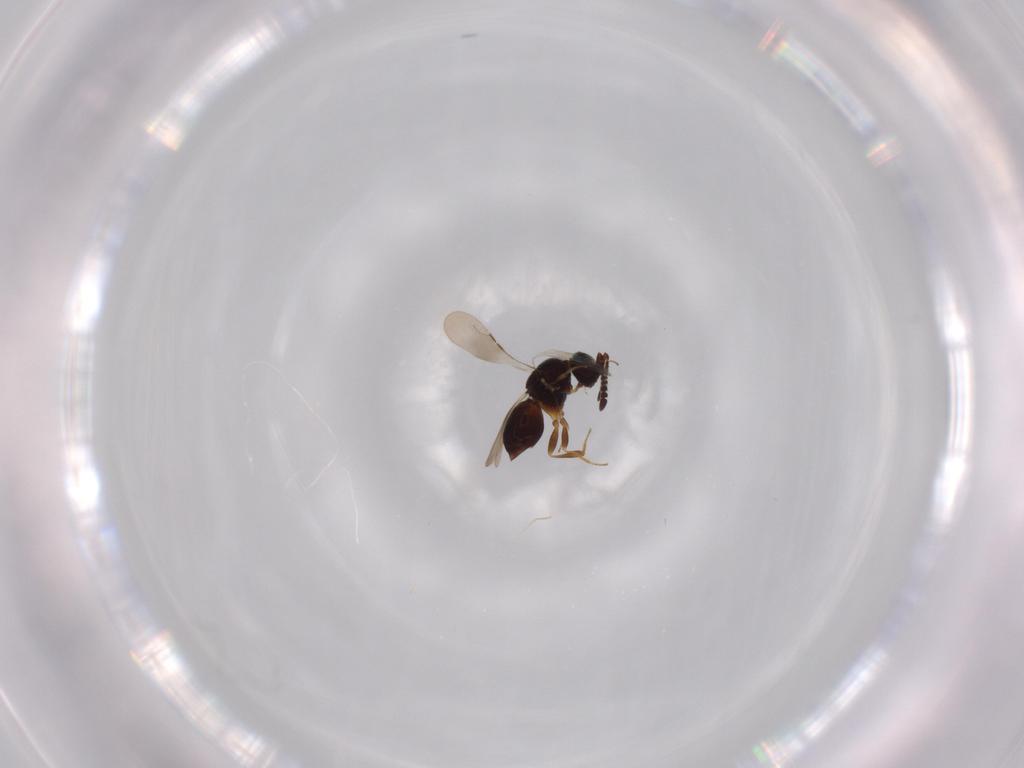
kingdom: Animalia
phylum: Arthropoda
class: Insecta
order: Hymenoptera
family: Ceraphronidae
